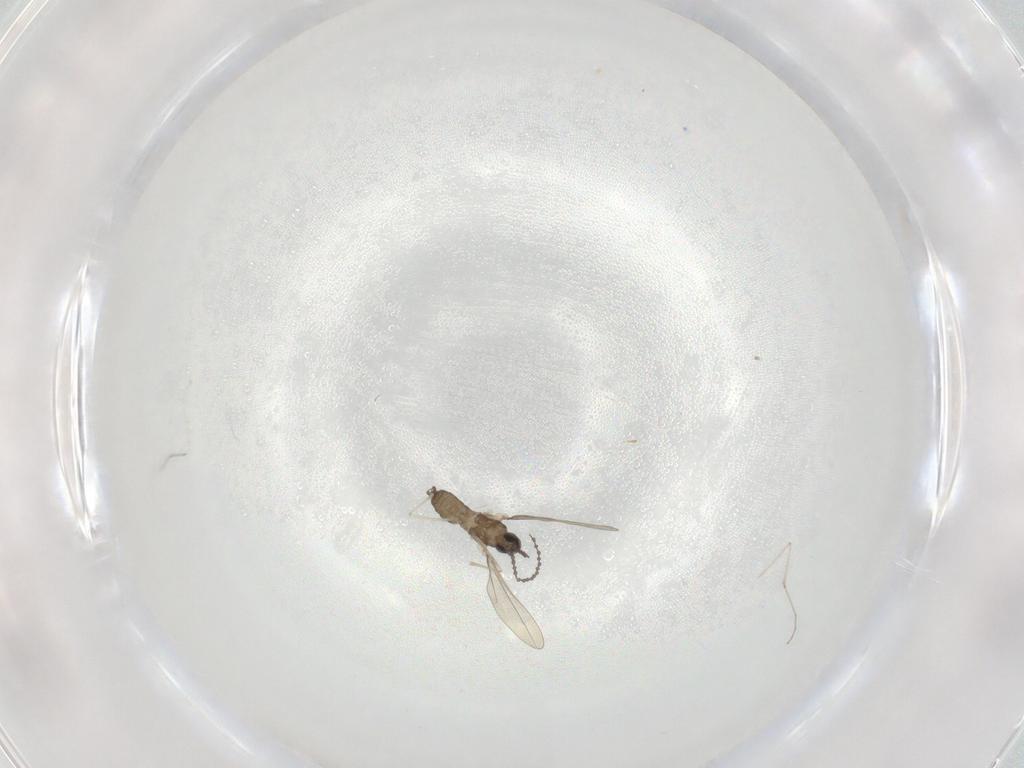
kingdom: Animalia
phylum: Arthropoda
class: Insecta
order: Diptera
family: Cecidomyiidae
